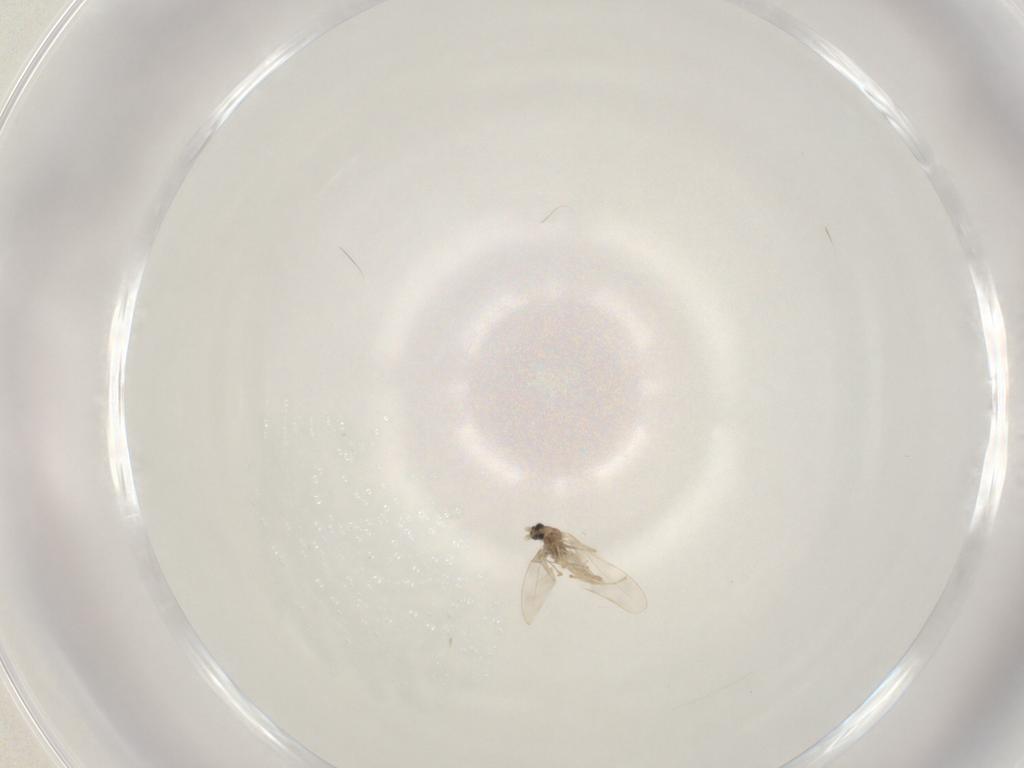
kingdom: Animalia
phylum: Arthropoda
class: Insecta
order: Diptera
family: Cecidomyiidae
